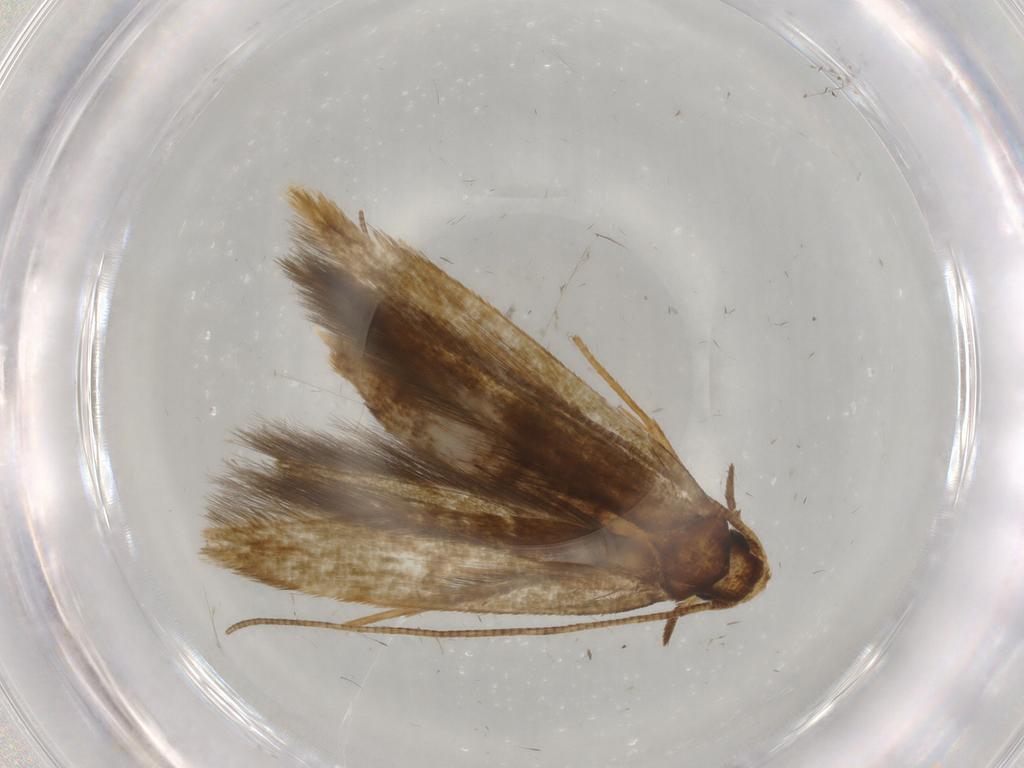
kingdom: Animalia
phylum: Arthropoda
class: Insecta
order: Lepidoptera
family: Tineidae
